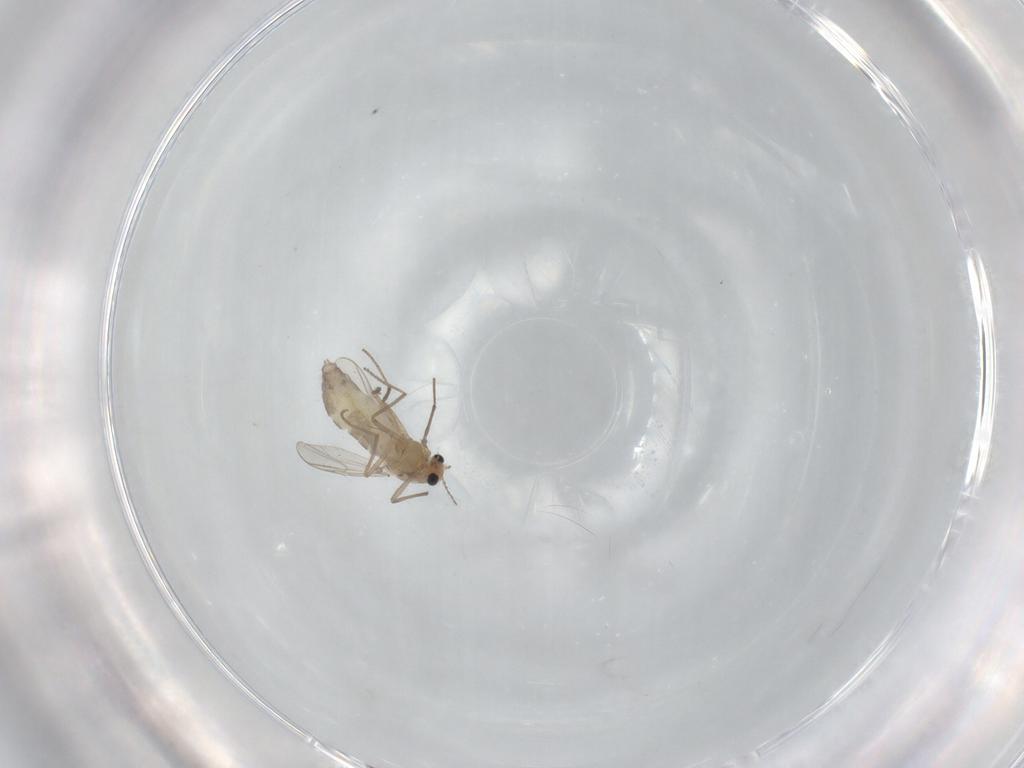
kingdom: Animalia
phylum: Arthropoda
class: Insecta
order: Diptera
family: Chironomidae
